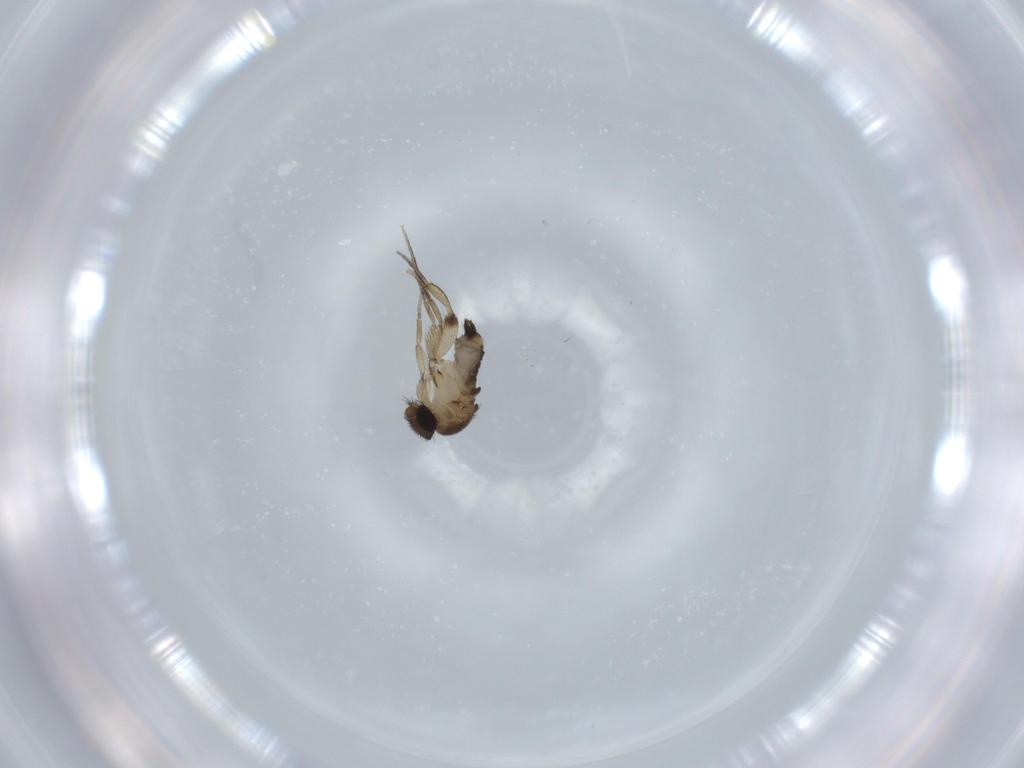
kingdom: Animalia
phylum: Arthropoda
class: Insecta
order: Diptera
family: Phoridae
